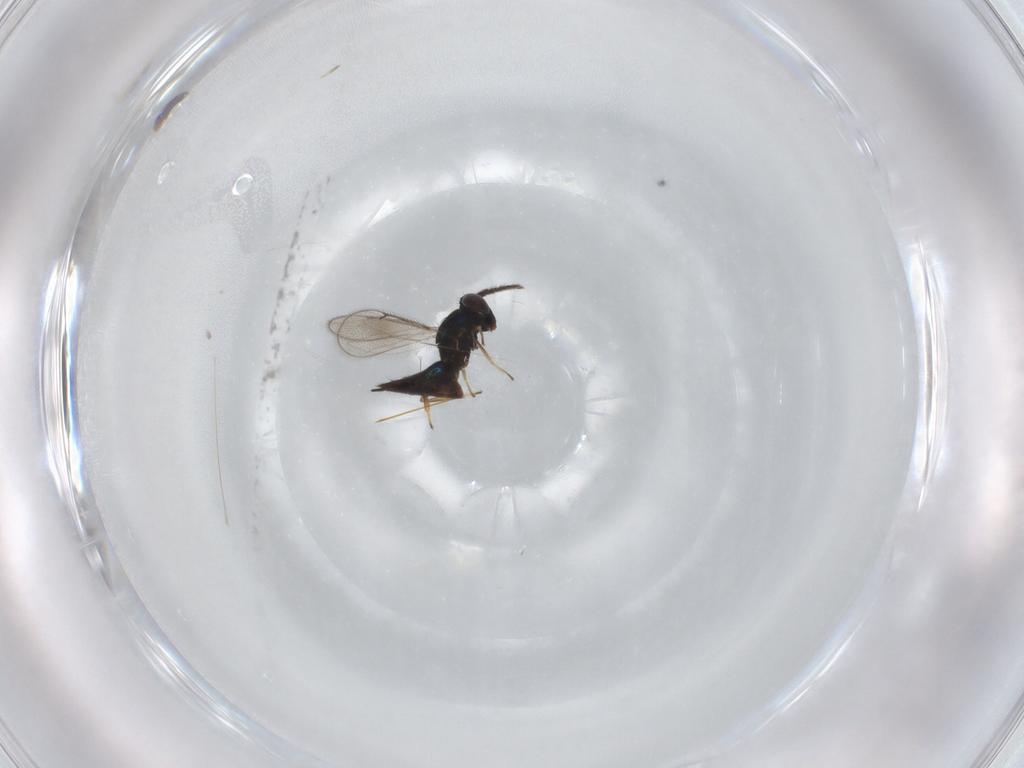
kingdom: Animalia
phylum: Arthropoda
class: Insecta
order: Hymenoptera
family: Eulophidae
